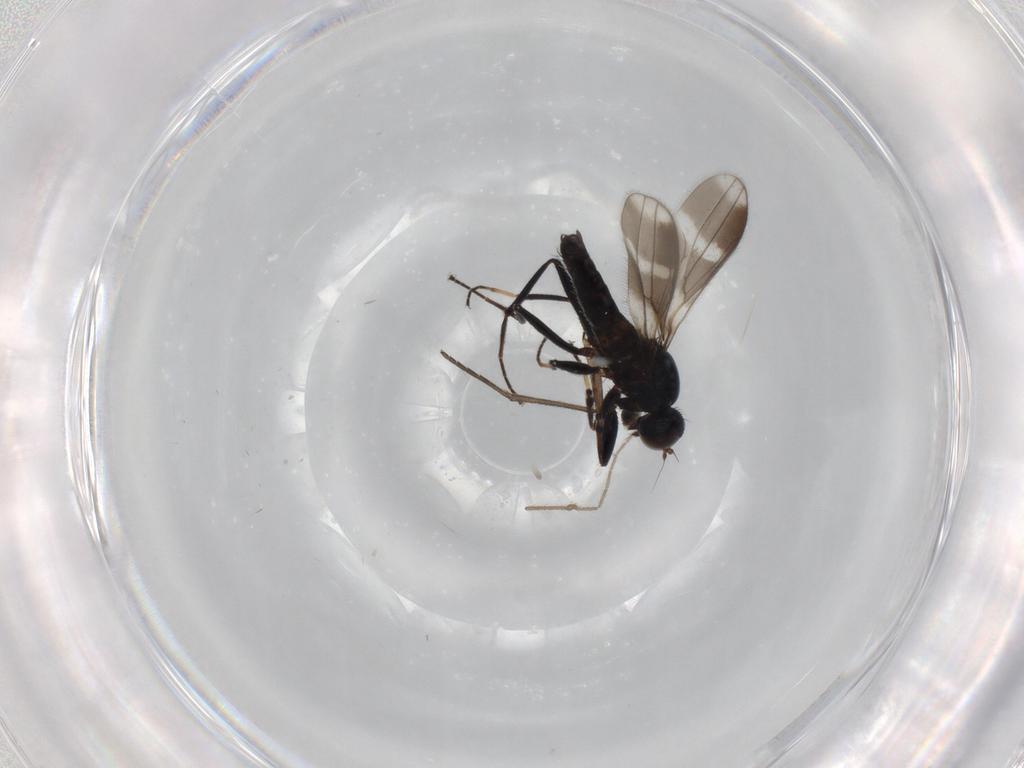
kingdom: Animalia
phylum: Arthropoda
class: Insecta
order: Diptera
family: Hybotidae
